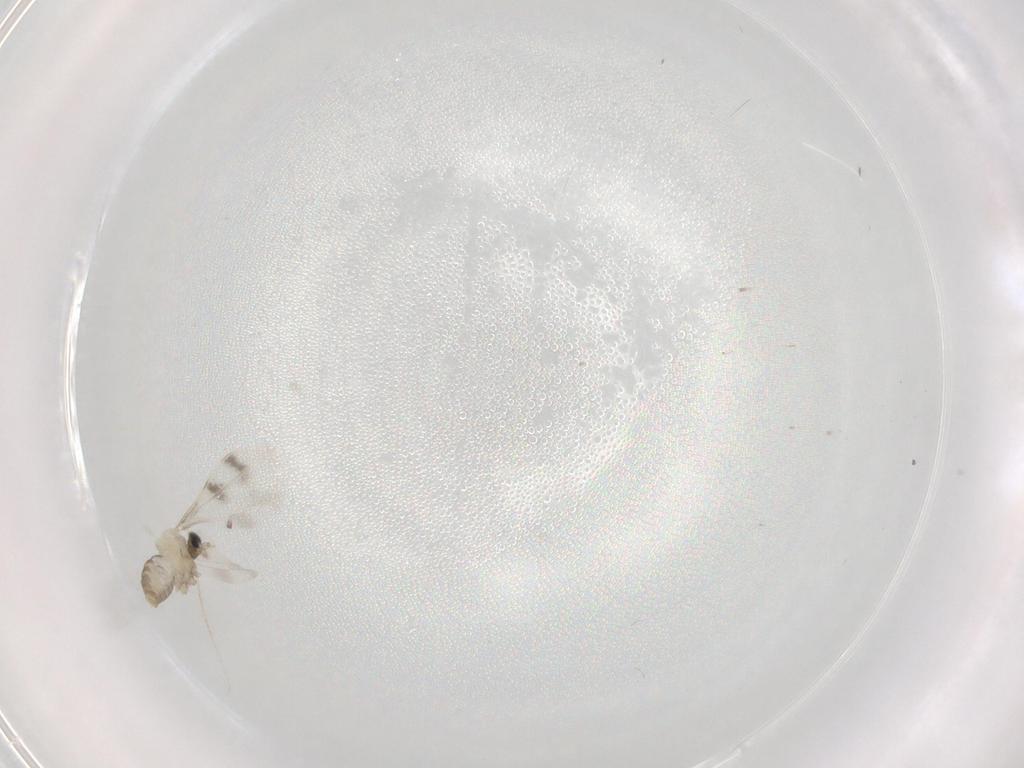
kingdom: Animalia
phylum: Arthropoda
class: Insecta
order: Diptera
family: Cecidomyiidae
